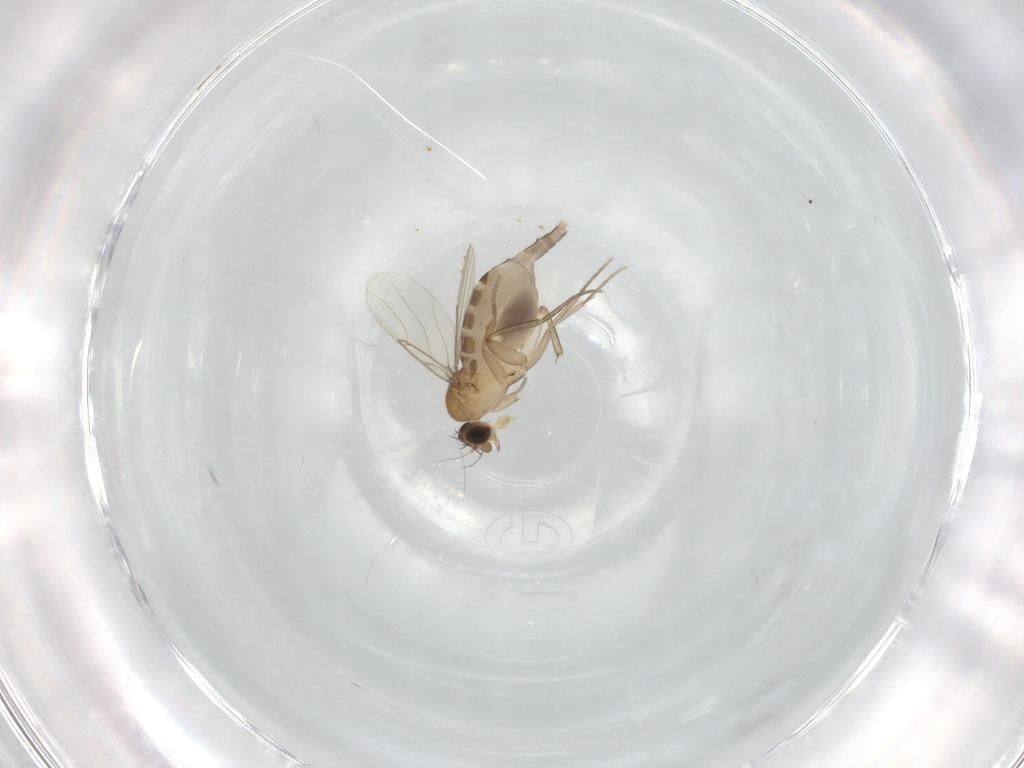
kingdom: Animalia
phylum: Arthropoda
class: Insecta
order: Diptera
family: Phoridae
